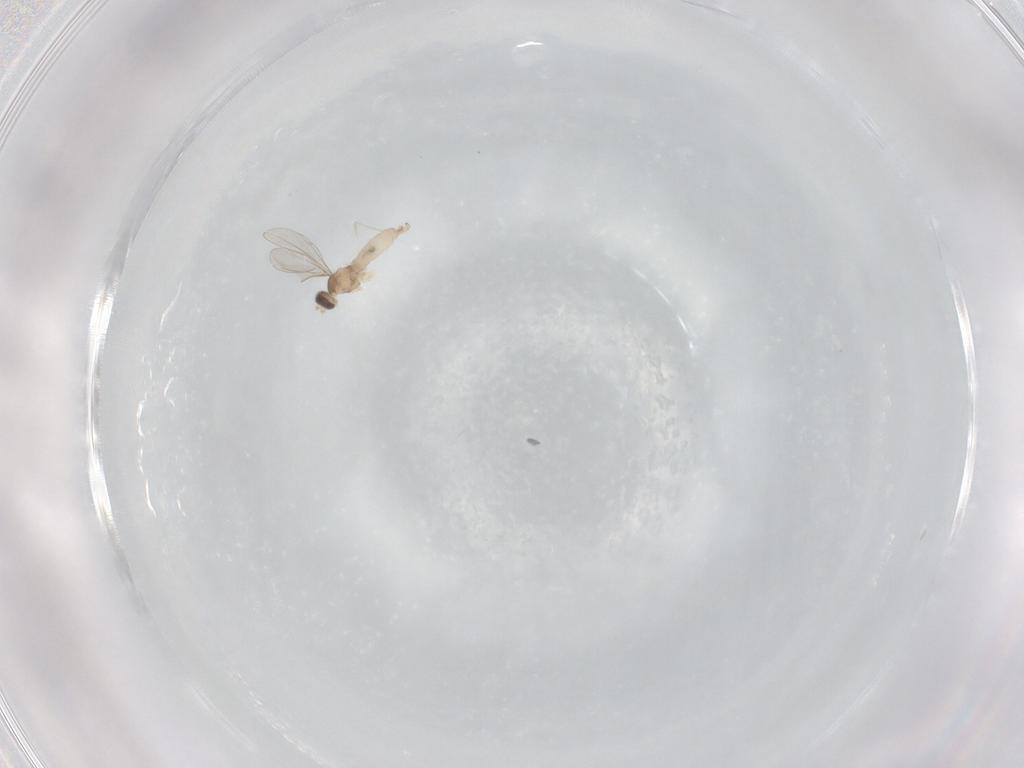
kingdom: Animalia
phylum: Arthropoda
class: Insecta
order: Diptera
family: Cecidomyiidae
